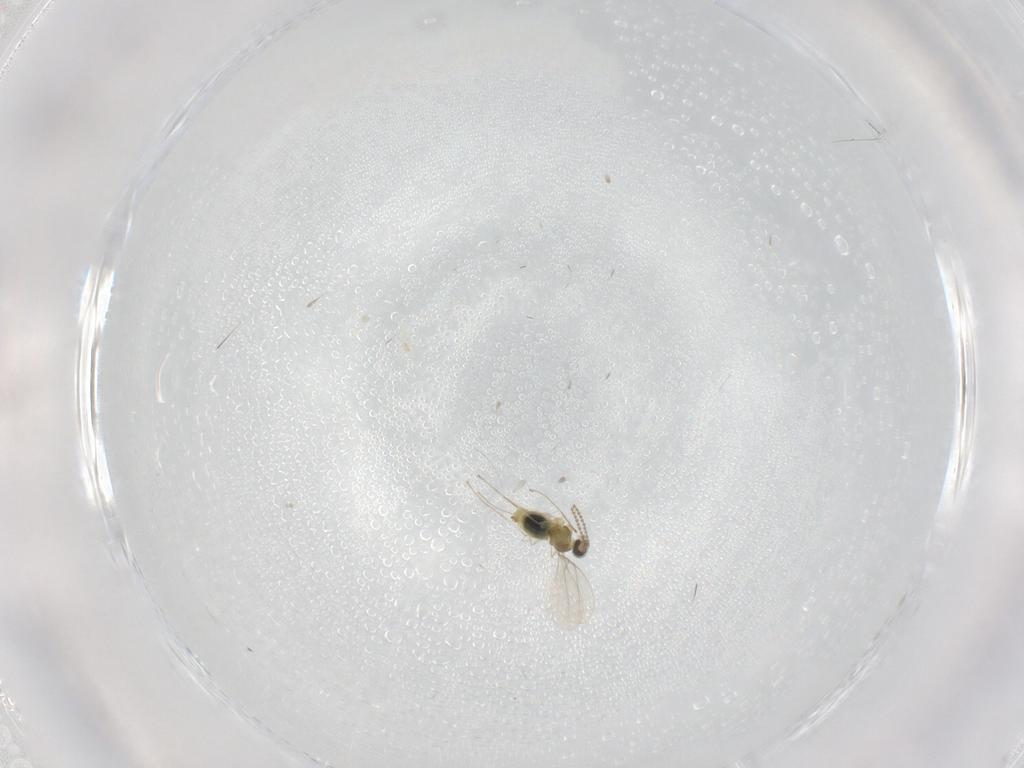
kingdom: Animalia
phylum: Arthropoda
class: Insecta
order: Diptera
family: Cecidomyiidae
